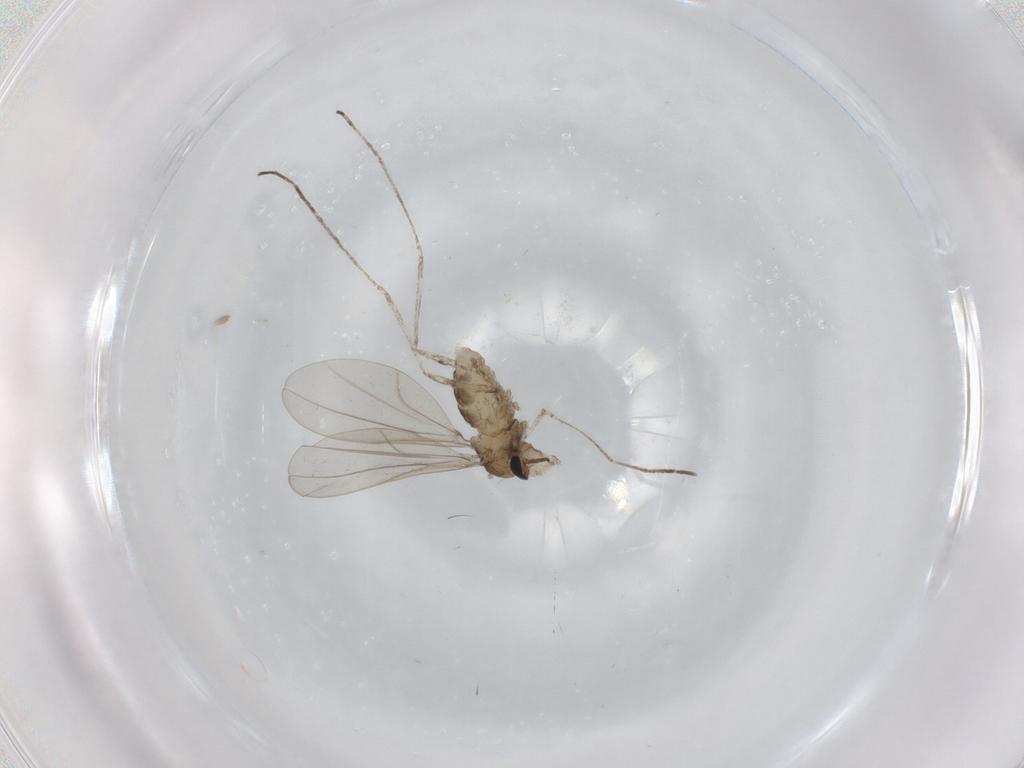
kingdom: Animalia
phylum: Arthropoda
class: Insecta
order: Diptera
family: Cecidomyiidae
